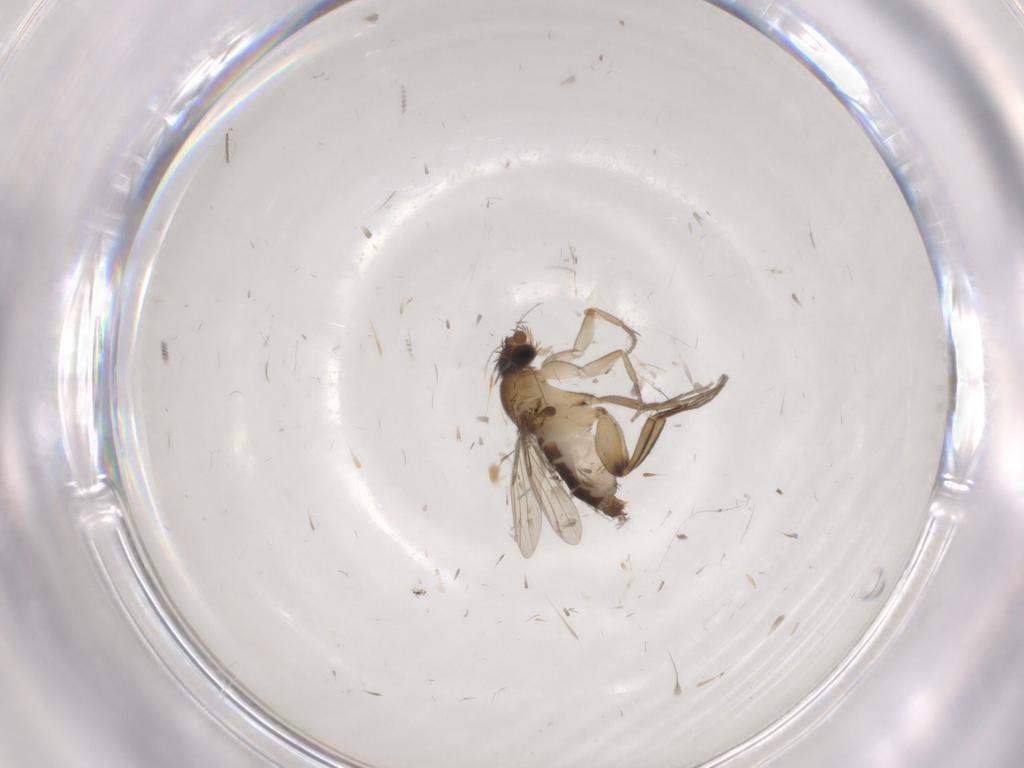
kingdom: Animalia
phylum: Arthropoda
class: Insecta
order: Diptera
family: Phoridae
